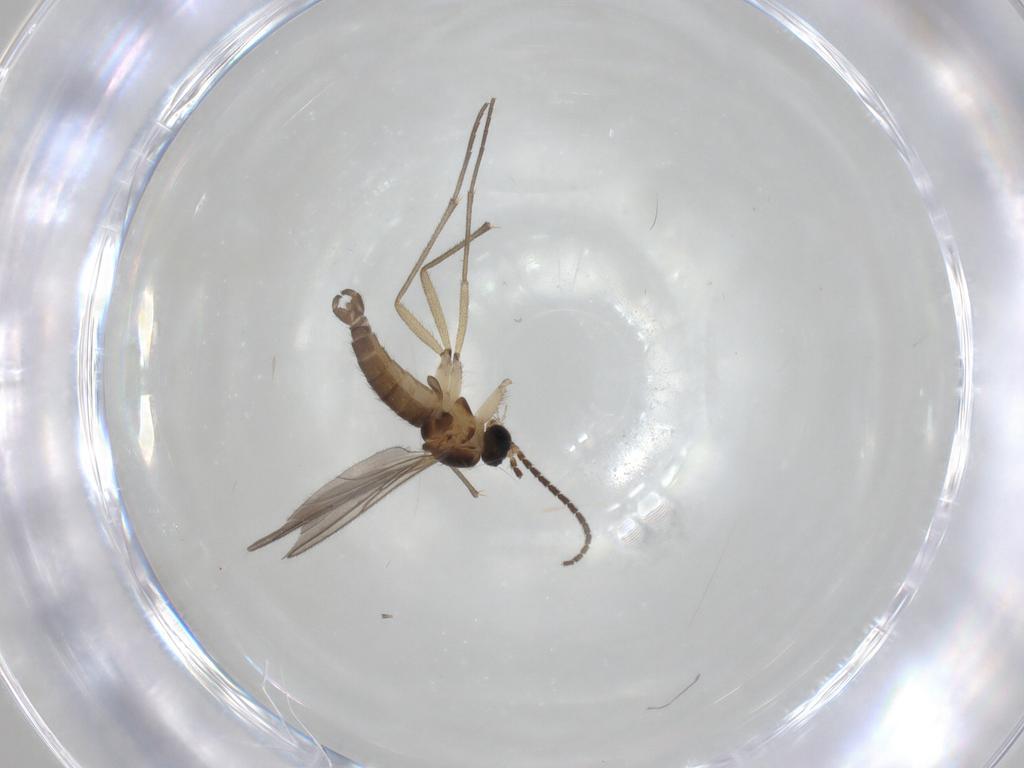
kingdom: Animalia
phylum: Arthropoda
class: Insecta
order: Diptera
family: Sciaridae
